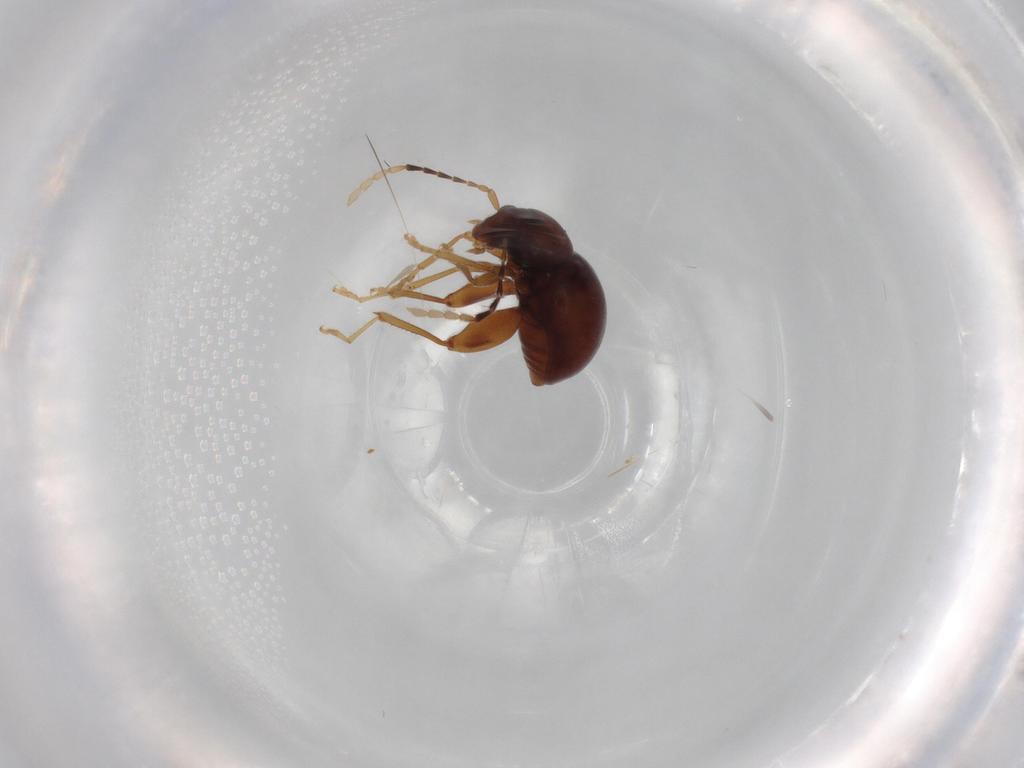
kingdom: Animalia
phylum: Arthropoda
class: Insecta
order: Coleoptera
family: Chrysomelidae
